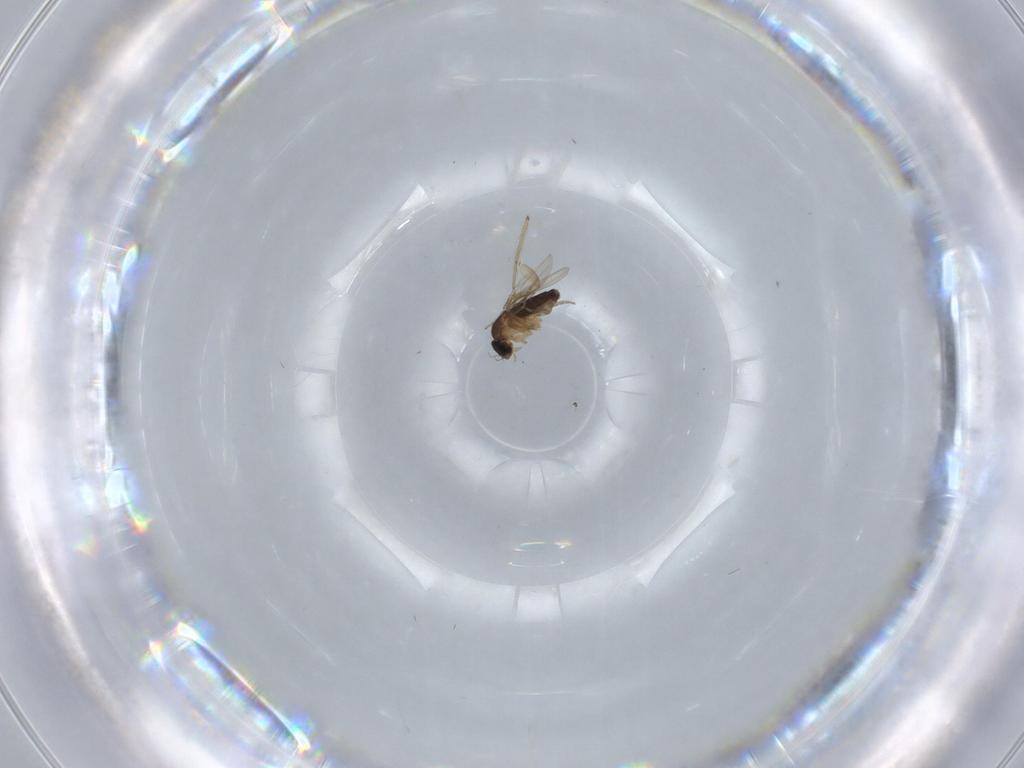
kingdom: Animalia
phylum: Arthropoda
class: Insecta
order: Diptera
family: Phoridae
